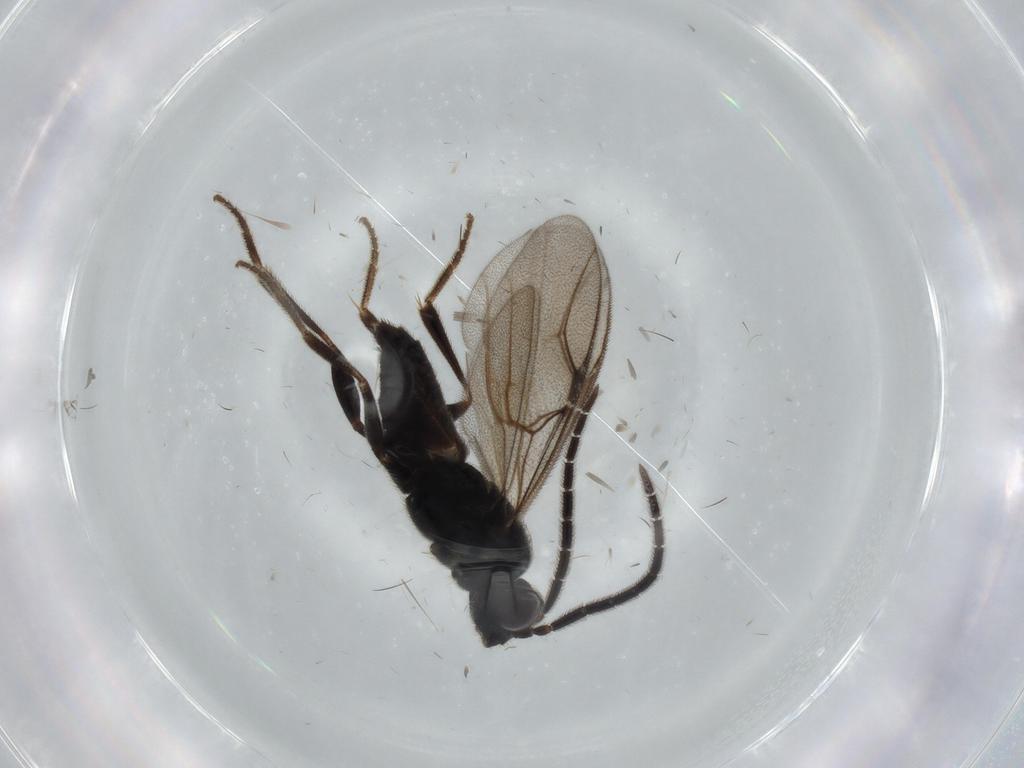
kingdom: Animalia
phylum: Arthropoda
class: Insecta
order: Hymenoptera
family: Dryinidae
